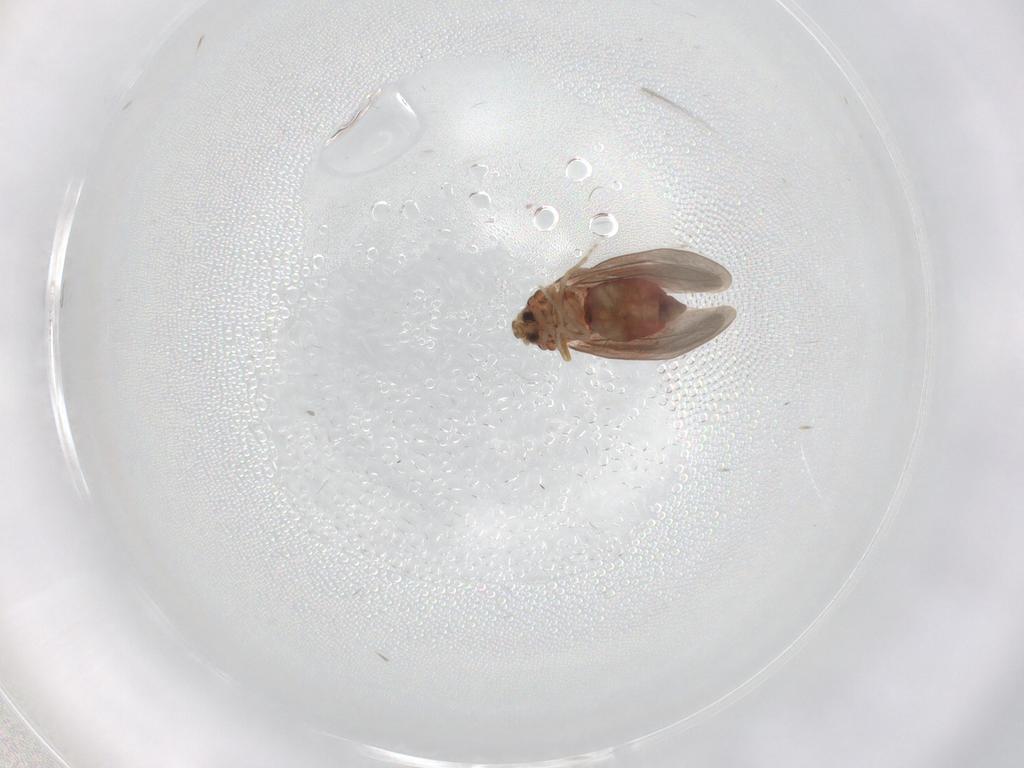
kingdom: Animalia
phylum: Arthropoda
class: Insecta
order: Hemiptera
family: Aleyrodidae
